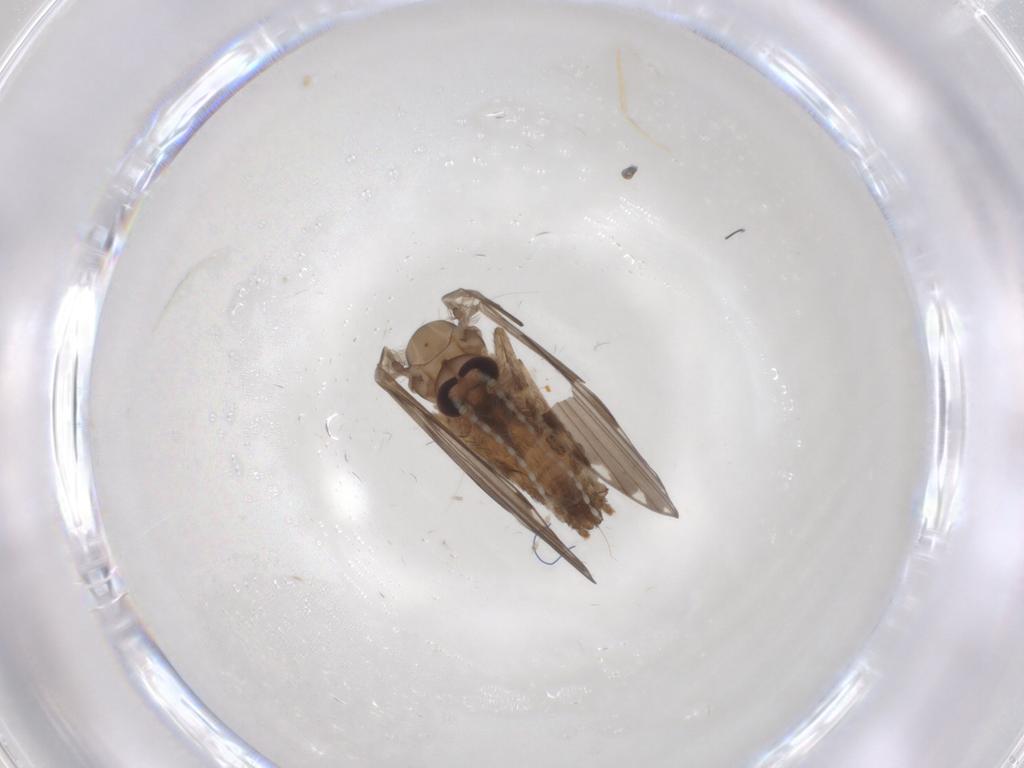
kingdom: Animalia
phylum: Arthropoda
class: Insecta
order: Diptera
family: Psychodidae
